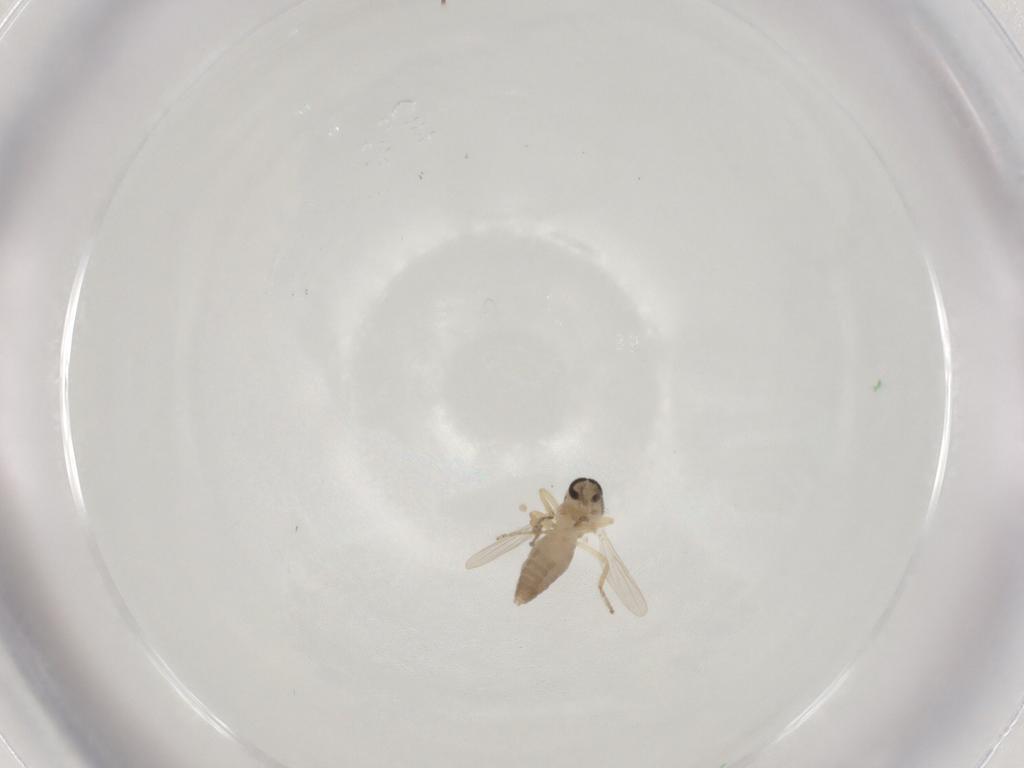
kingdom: Animalia
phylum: Arthropoda
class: Insecta
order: Diptera
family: Ceratopogonidae
